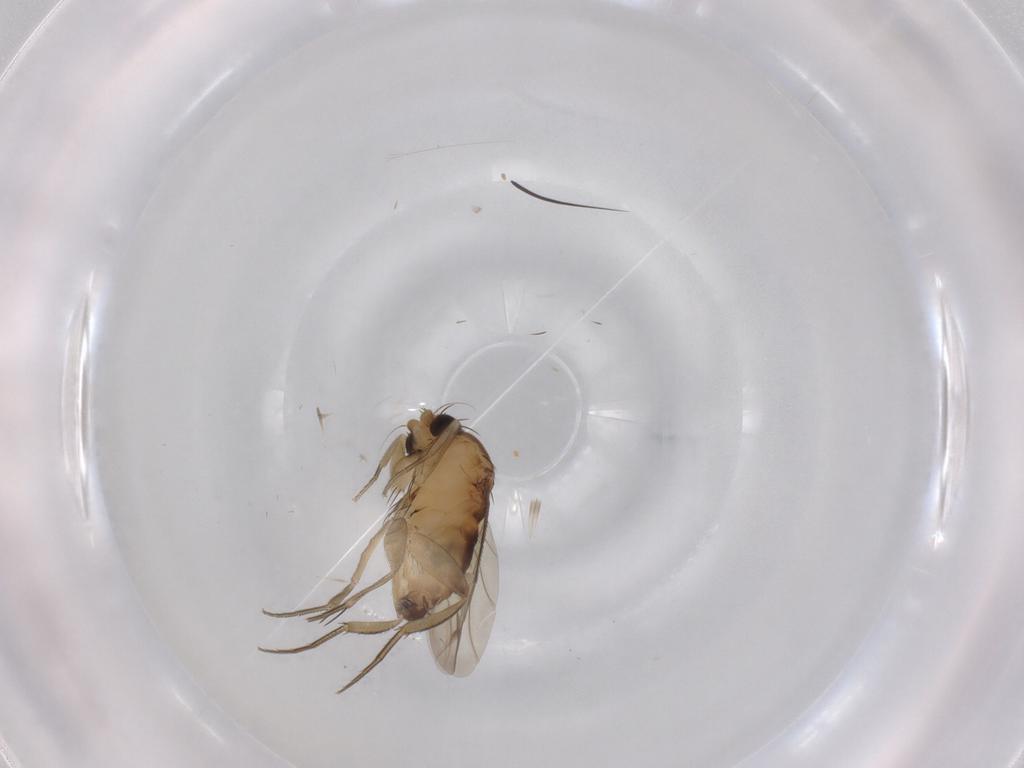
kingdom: Animalia
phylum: Arthropoda
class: Insecta
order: Diptera
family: Phoridae
